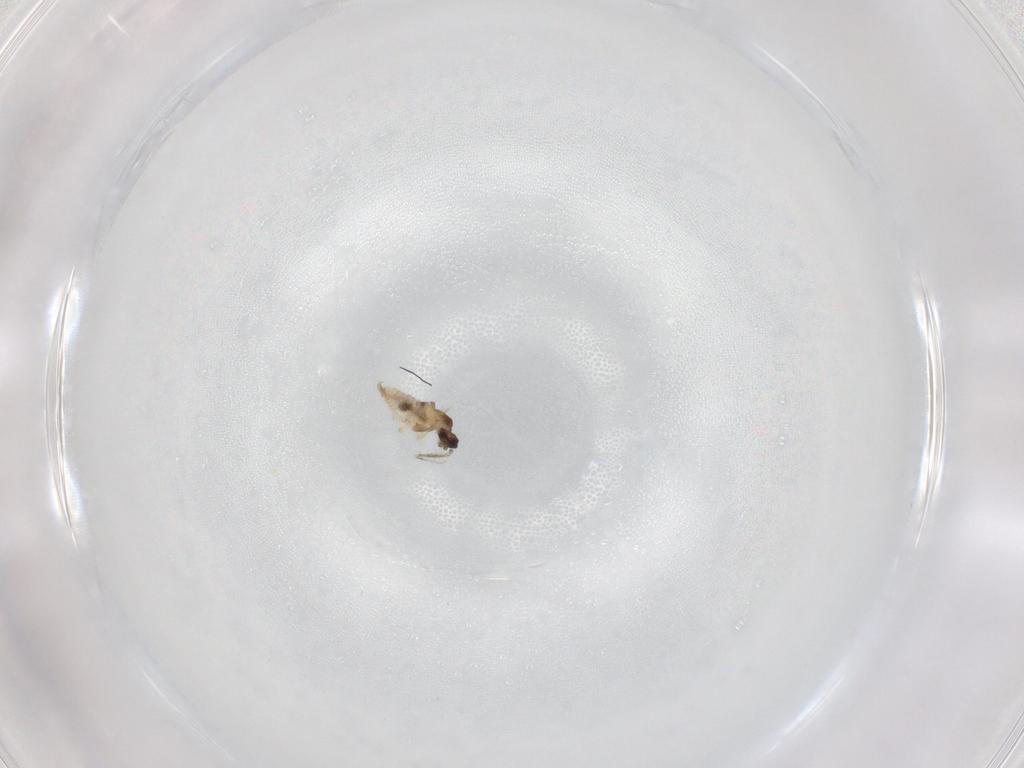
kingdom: Animalia
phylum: Arthropoda
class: Insecta
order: Diptera
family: Cecidomyiidae
